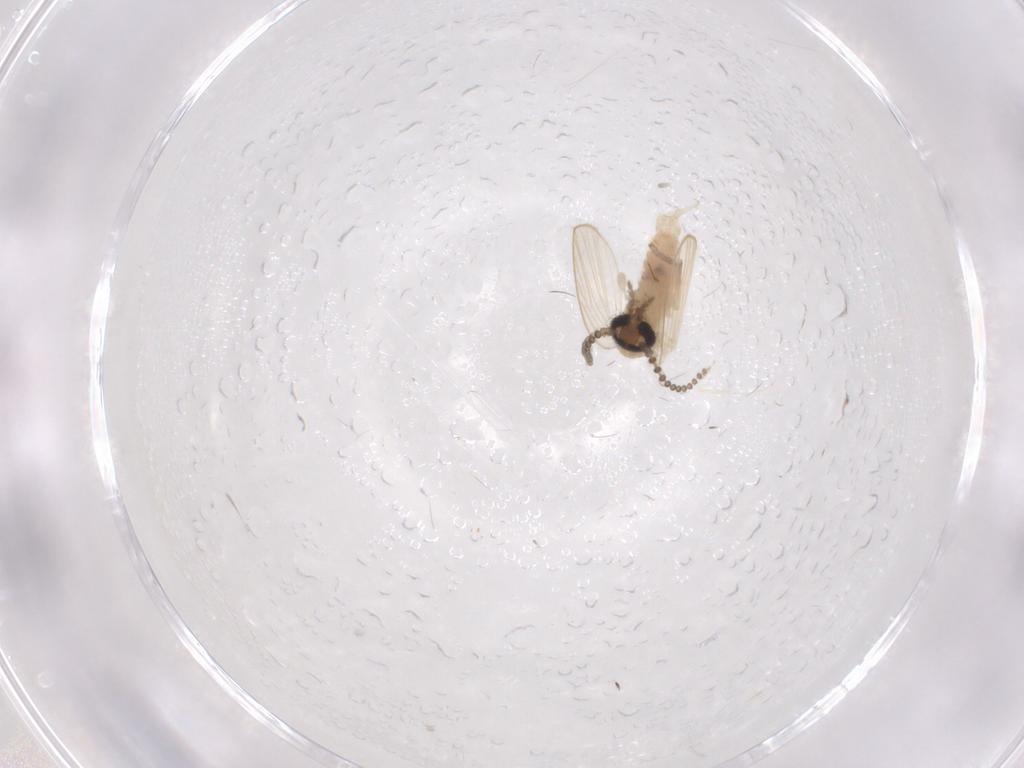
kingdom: Animalia
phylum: Arthropoda
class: Insecta
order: Diptera
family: Psychodidae
